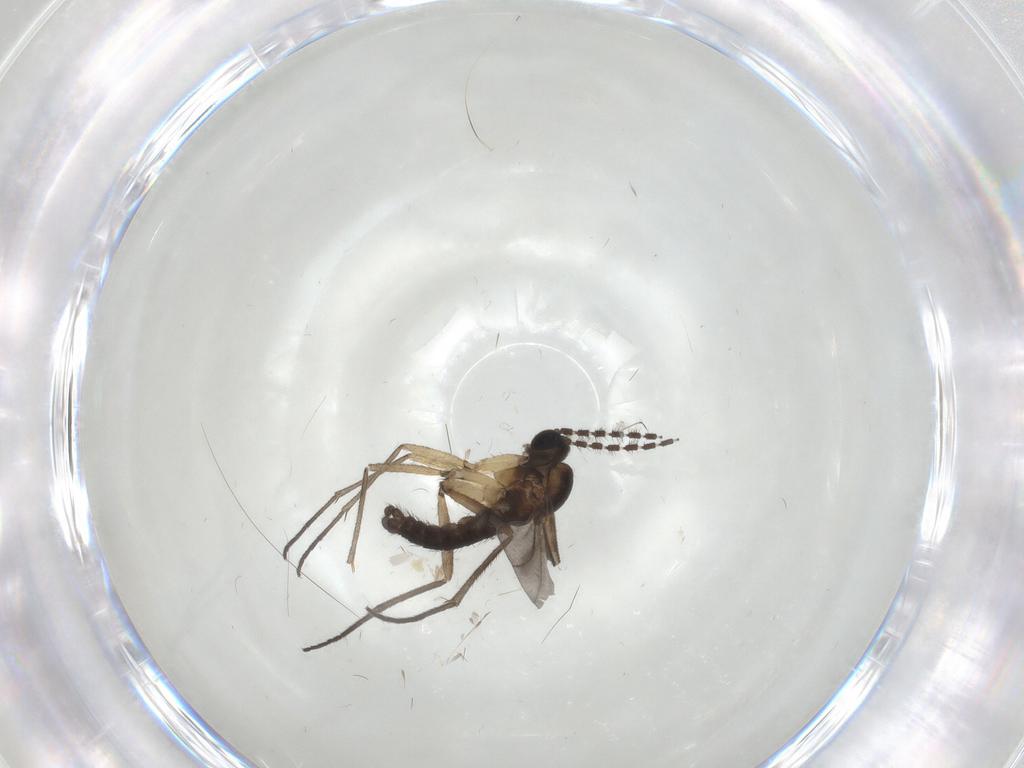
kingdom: Animalia
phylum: Arthropoda
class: Insecta
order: Diptera
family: Sciaridae
